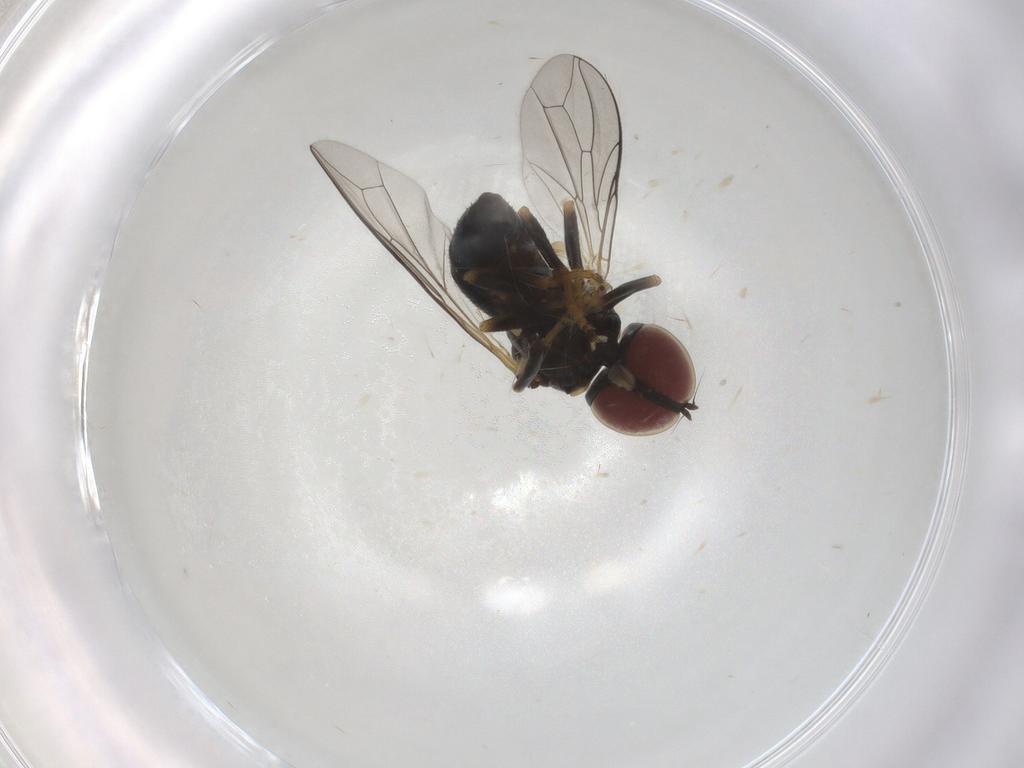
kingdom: Animalia
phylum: Arthropoda
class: Insecta
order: Diptera
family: Pipunculidae
